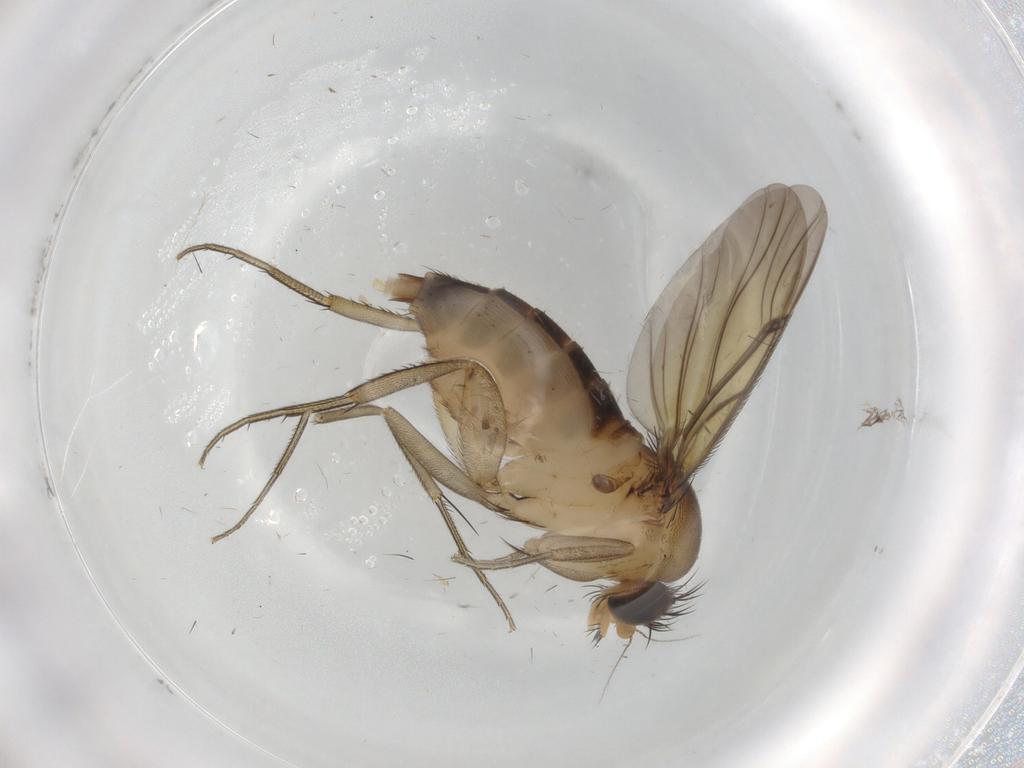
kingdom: Animalia
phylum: Arthropoda
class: Insecta
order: Diptera
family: Phoridae
